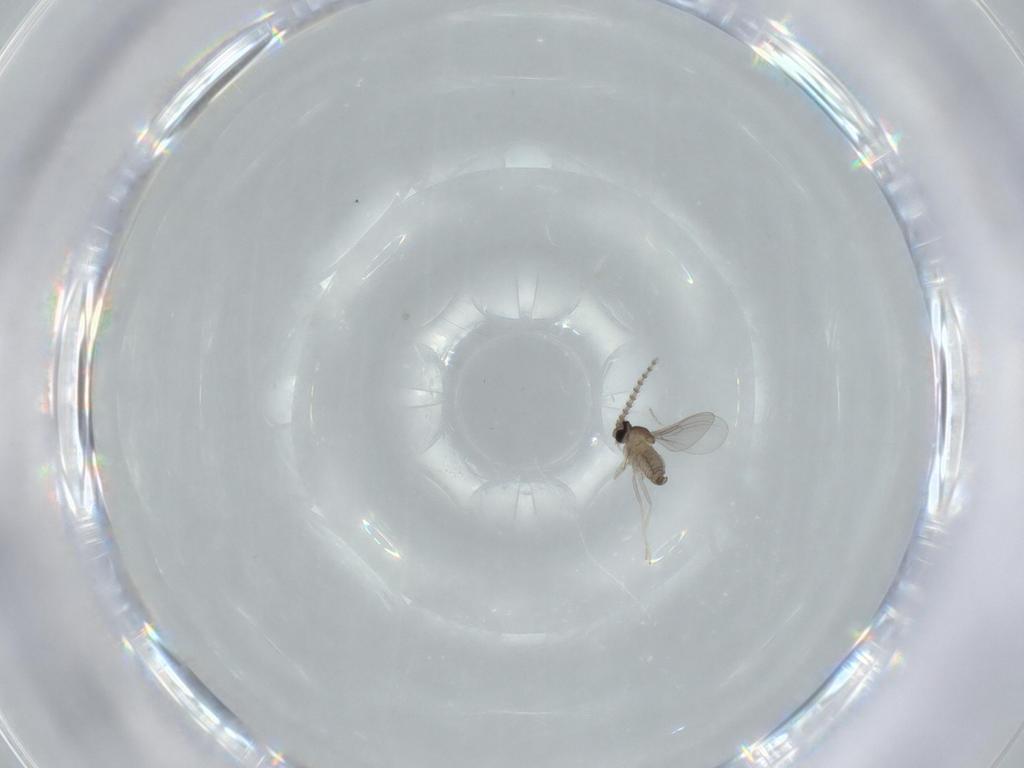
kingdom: Animalia
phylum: Arthropoda
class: Insecta
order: Diptera
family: Cecidomyiidae
